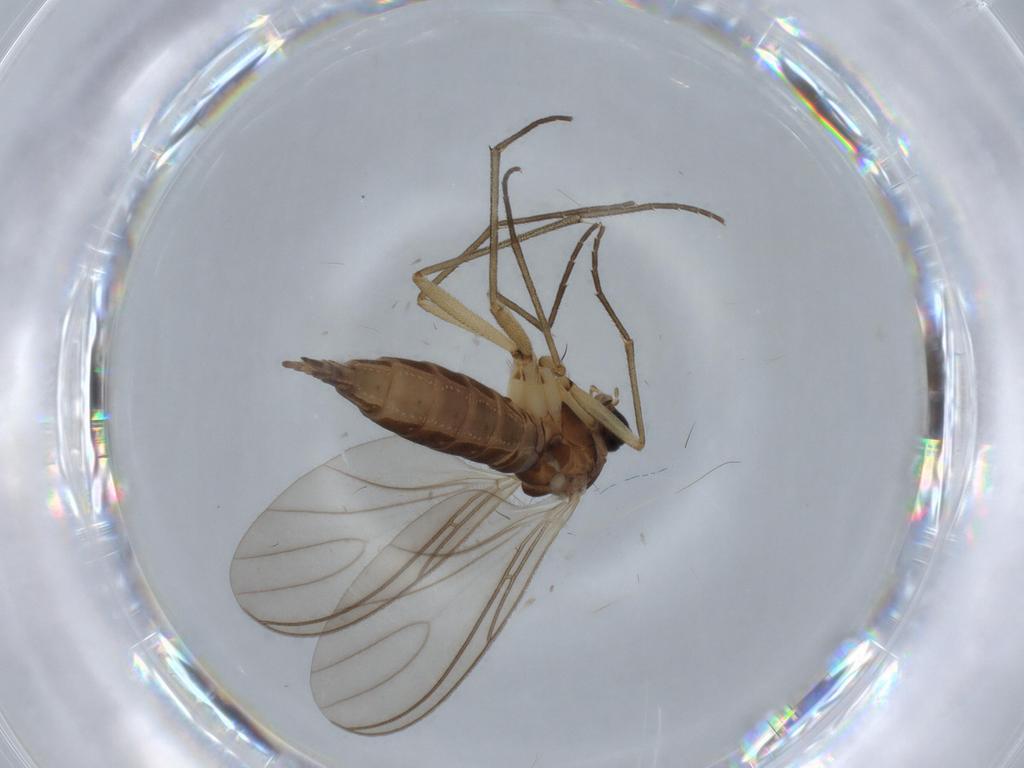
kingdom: Animalia
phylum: Arthropoda
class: Insecta
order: Diptera
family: Sciaridae
